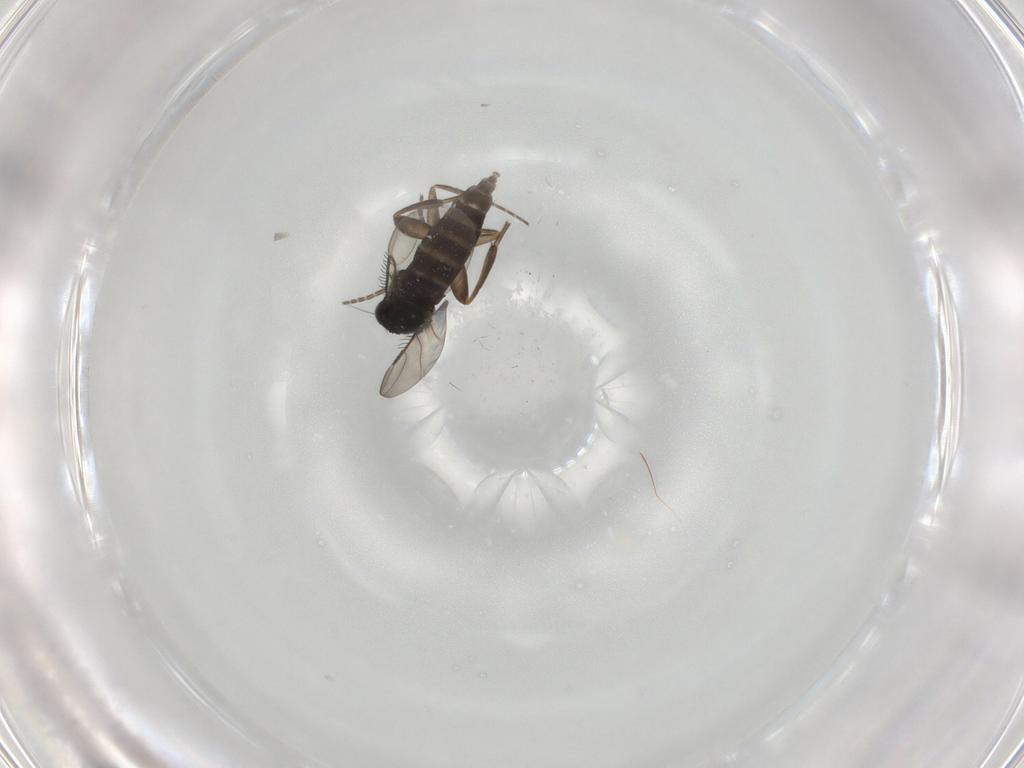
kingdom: Animalia
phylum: Arthropoda
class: Insecta
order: Diptera
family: Phoridae
